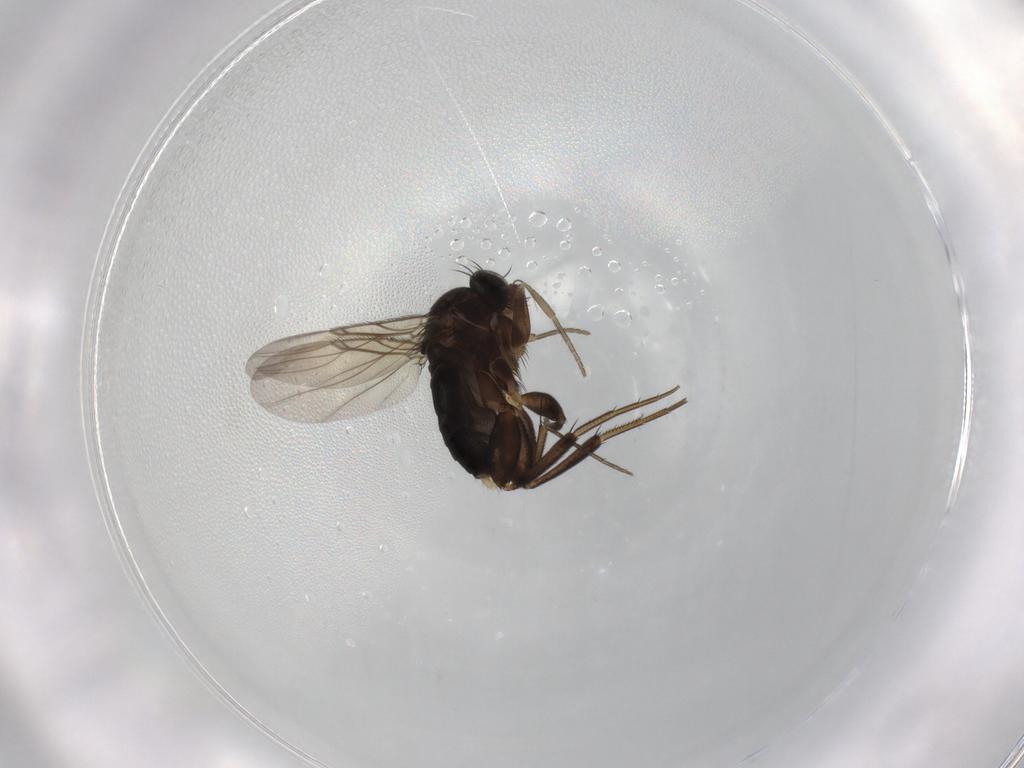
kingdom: Animalia
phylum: Arthropoda
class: Insecta
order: Diptera
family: Phoridae
